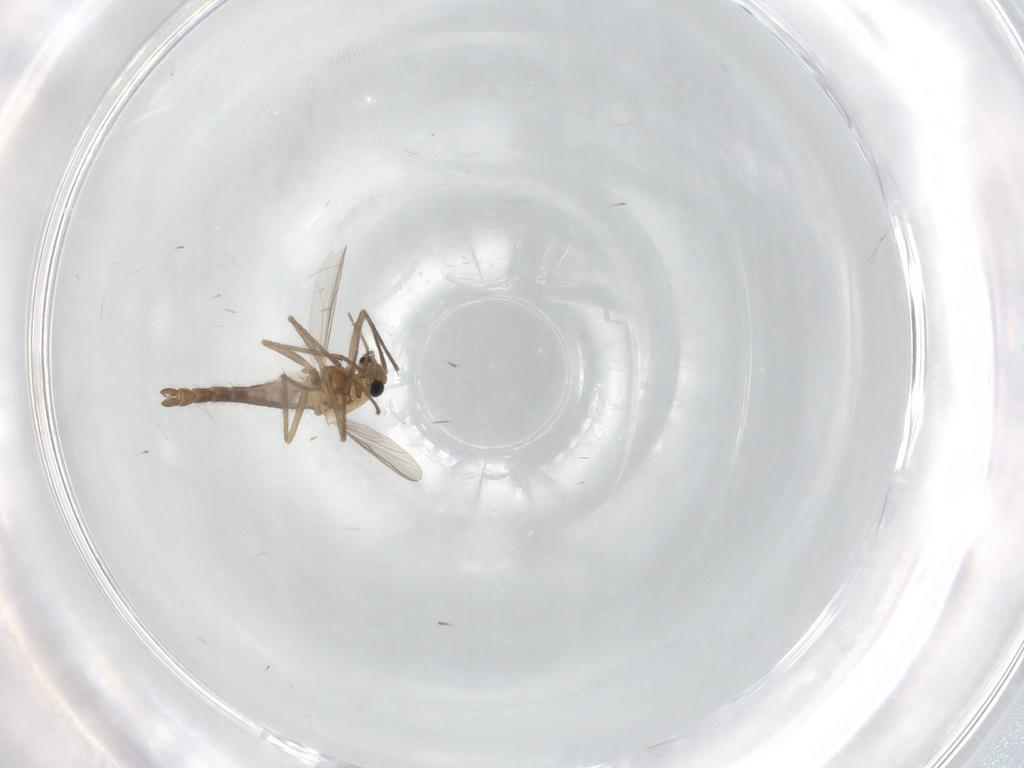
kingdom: Animalia
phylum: Arthropoda
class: Insecta
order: Diptera
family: Chironomidae
